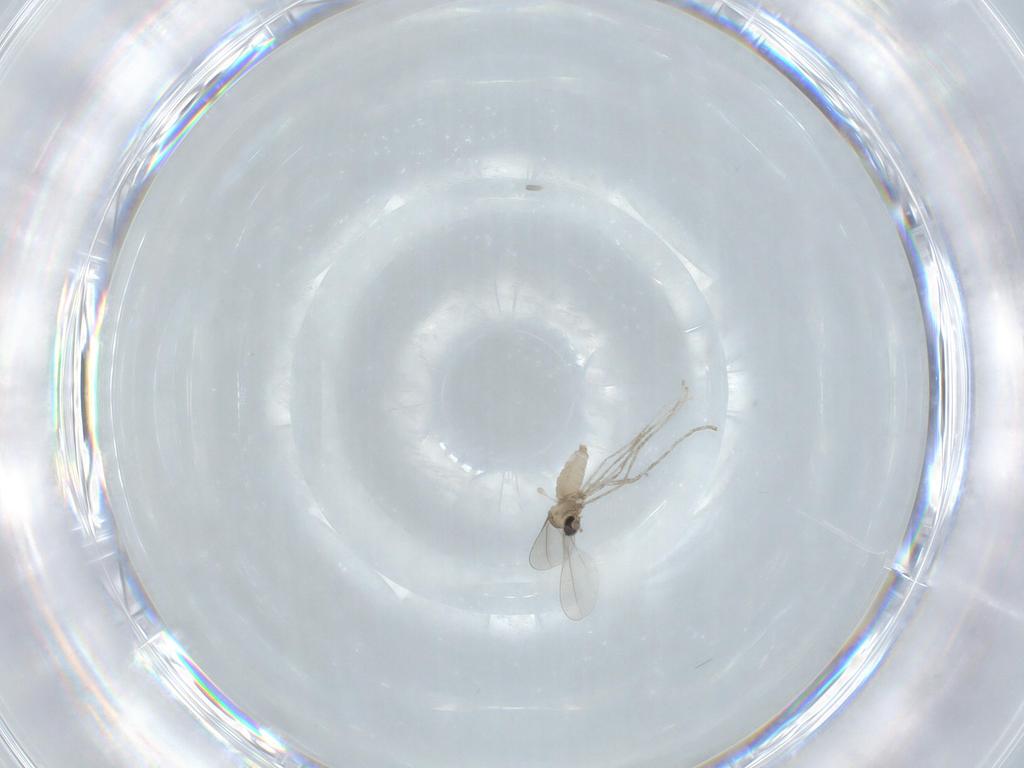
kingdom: Animalia
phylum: Arthropoda
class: Insecta
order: Diptera
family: Cecidomyiidae
